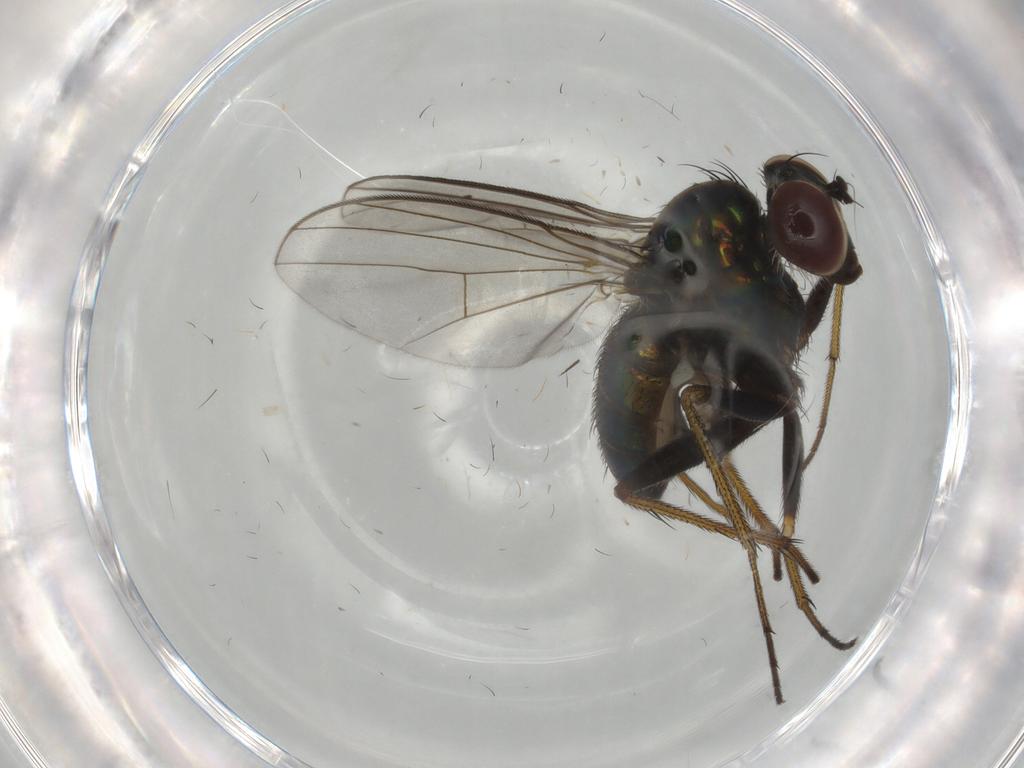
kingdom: Animalia
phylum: Arthropoda
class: Insecta
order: Diptera
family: Dolichopodidae
